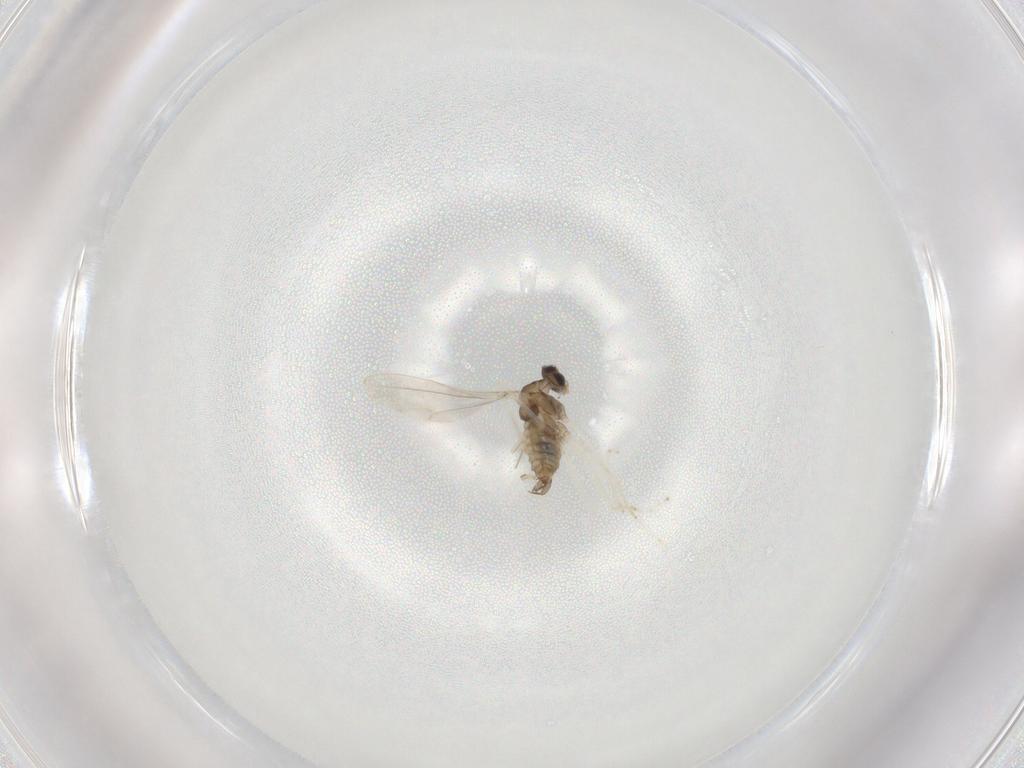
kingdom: Animalia
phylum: Arthropoda
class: Insecta
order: Diptera
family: Cecidomyiidae
